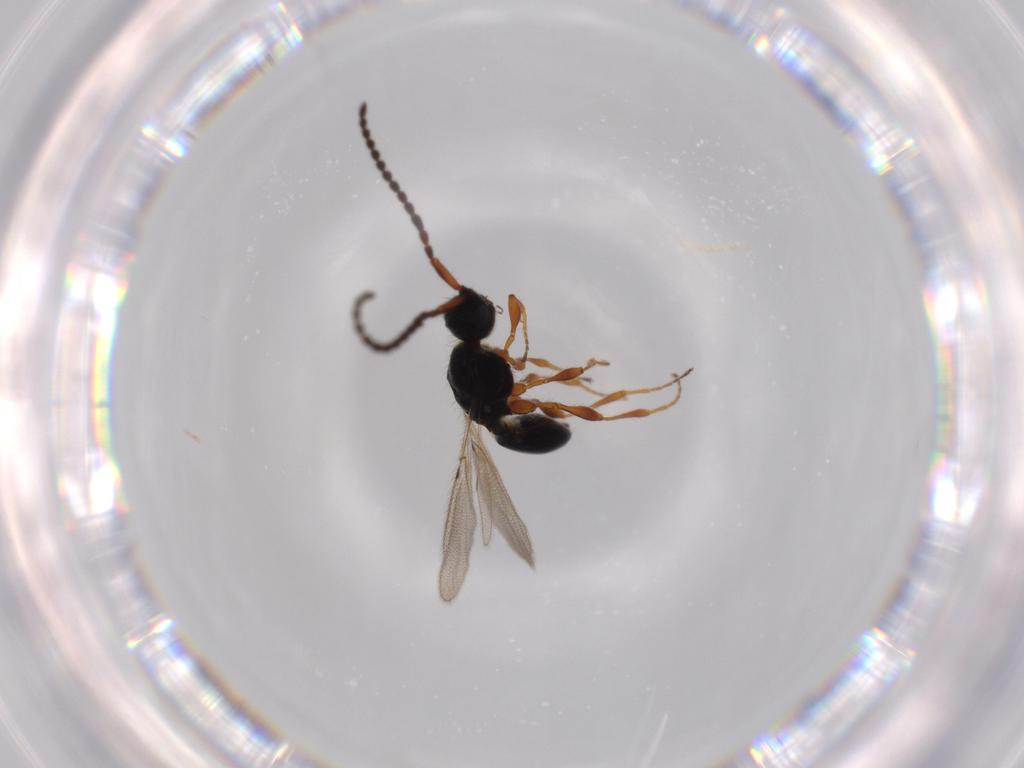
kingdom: Animalia
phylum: Arthropoda
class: Insecta
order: Hymenoptera
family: Diapriidae
